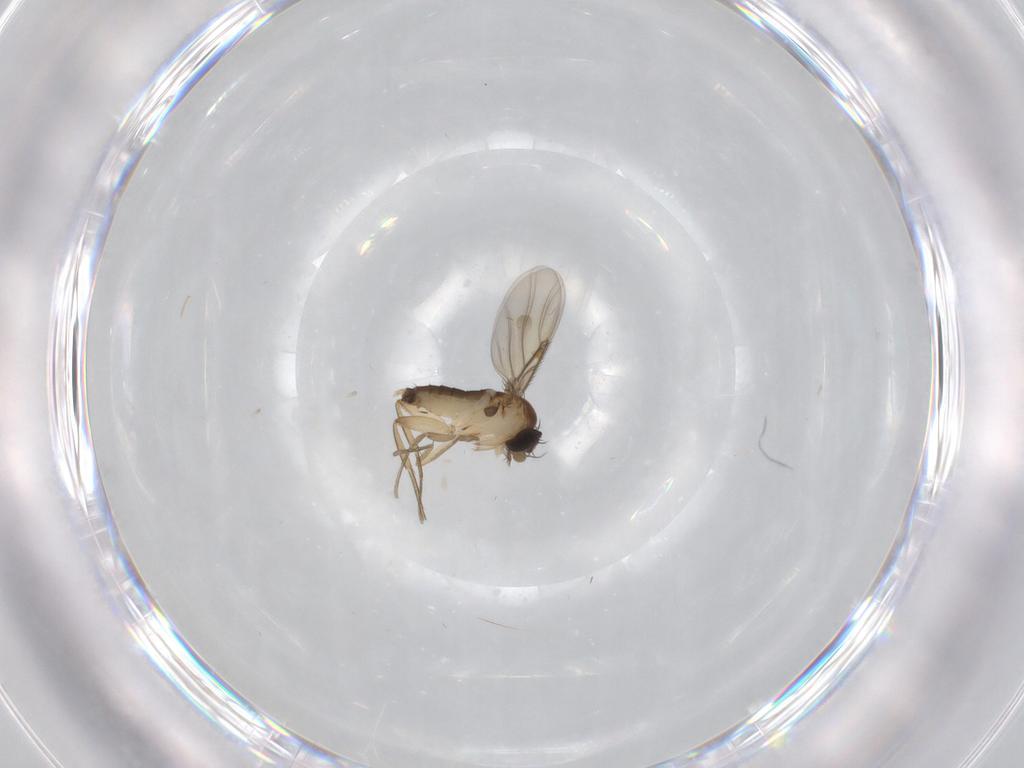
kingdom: Animalia
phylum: Arthropoda
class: Insecta
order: Diptera
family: Phoridae
